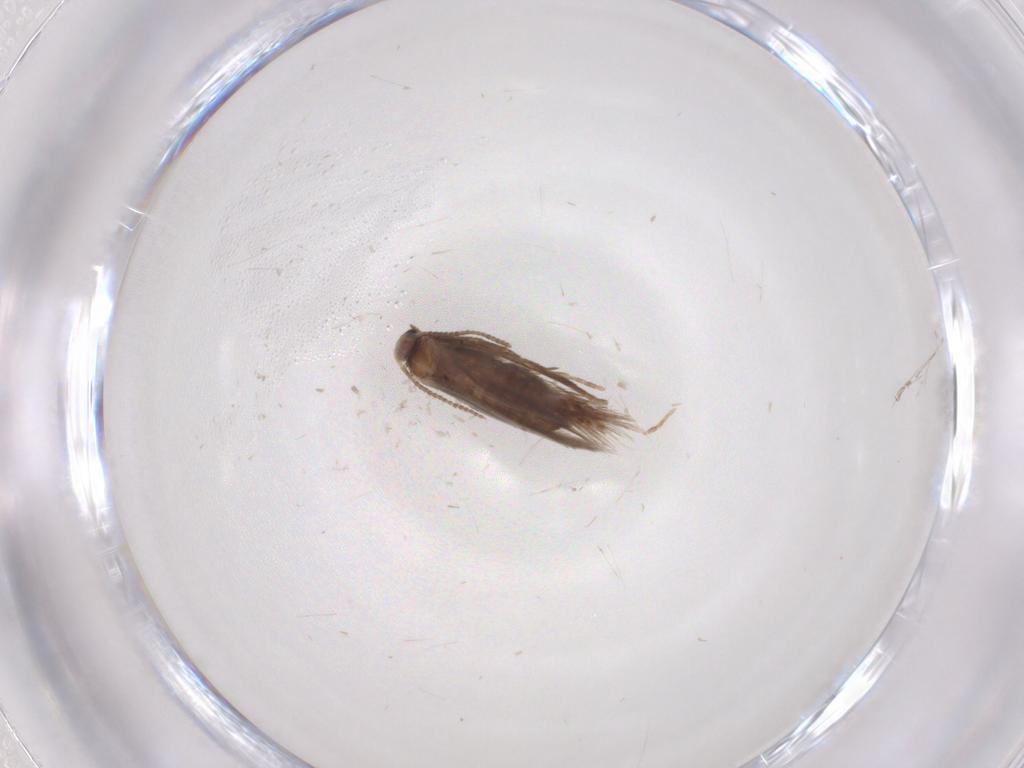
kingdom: Animalia
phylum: Arthropoda
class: Insecta
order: Lepidoptera
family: Nepticulidae
